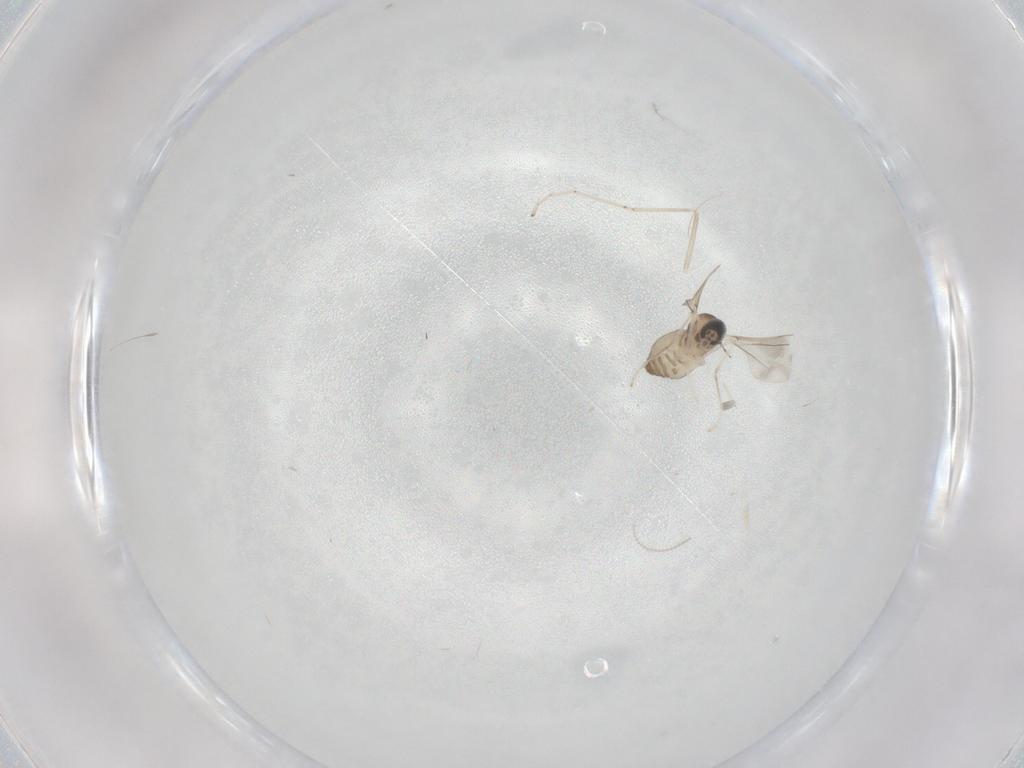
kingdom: Animalia
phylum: Arthropoda
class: Insecta
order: Diptera
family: Cecidomyiidae
